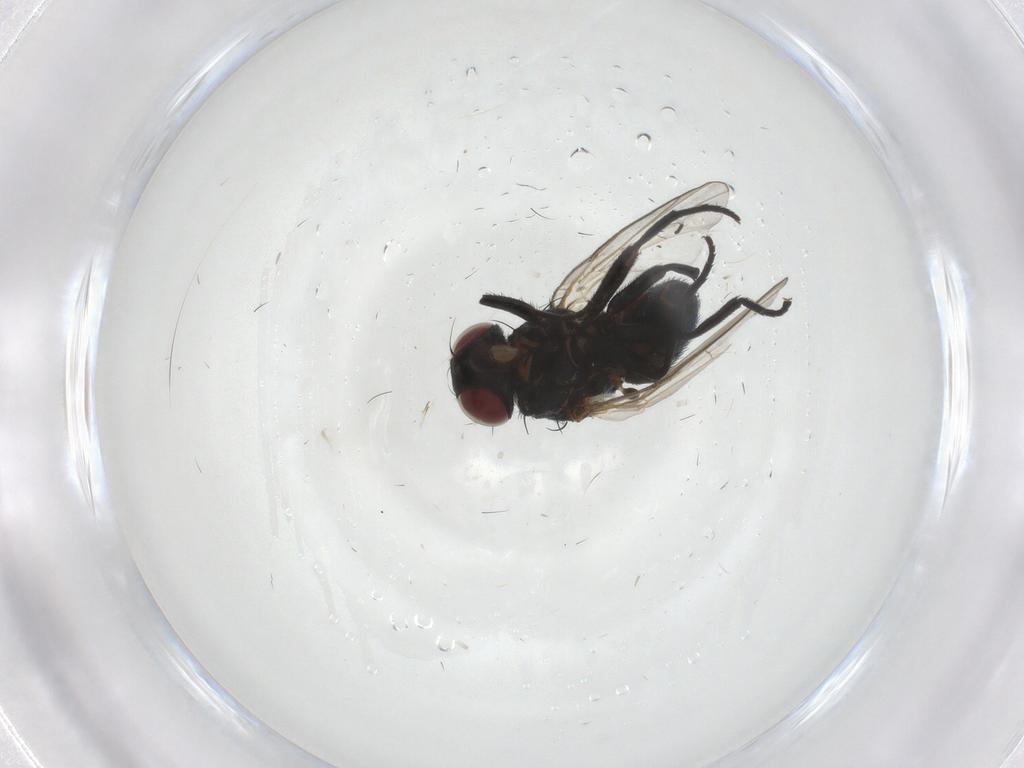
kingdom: Animalia
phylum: Arthropoda
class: Insecta
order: Diptera
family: Agromyzidae
